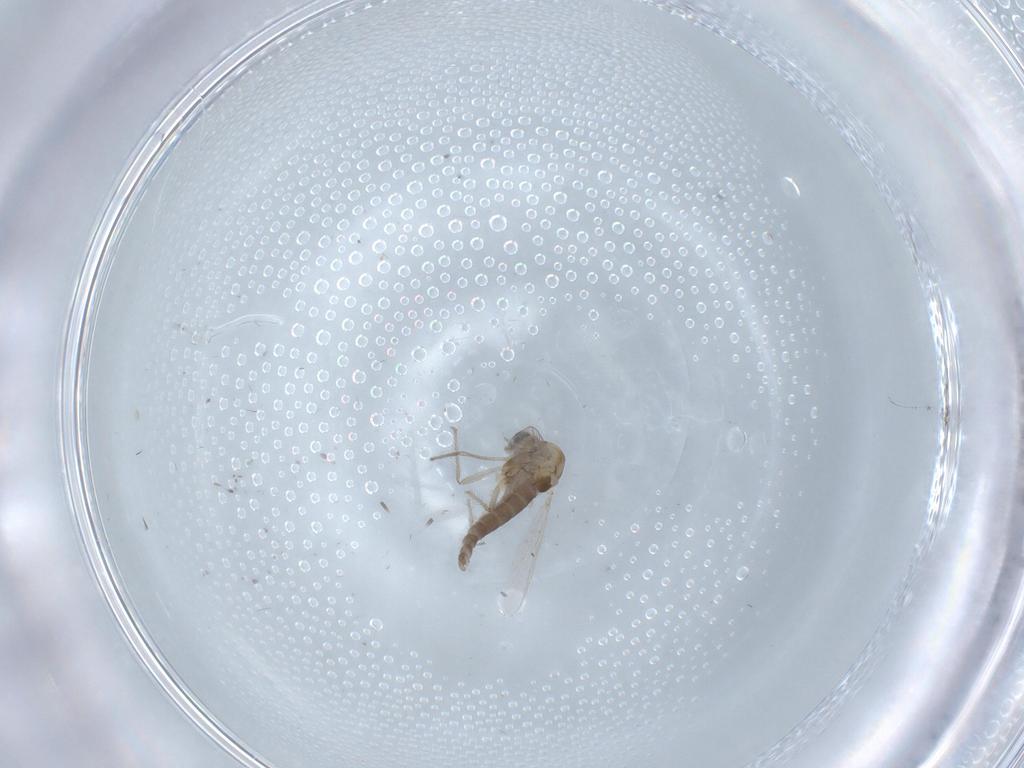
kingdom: Animalia
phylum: Arthropoda
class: Insecta
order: Diptera
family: Chironomidae
